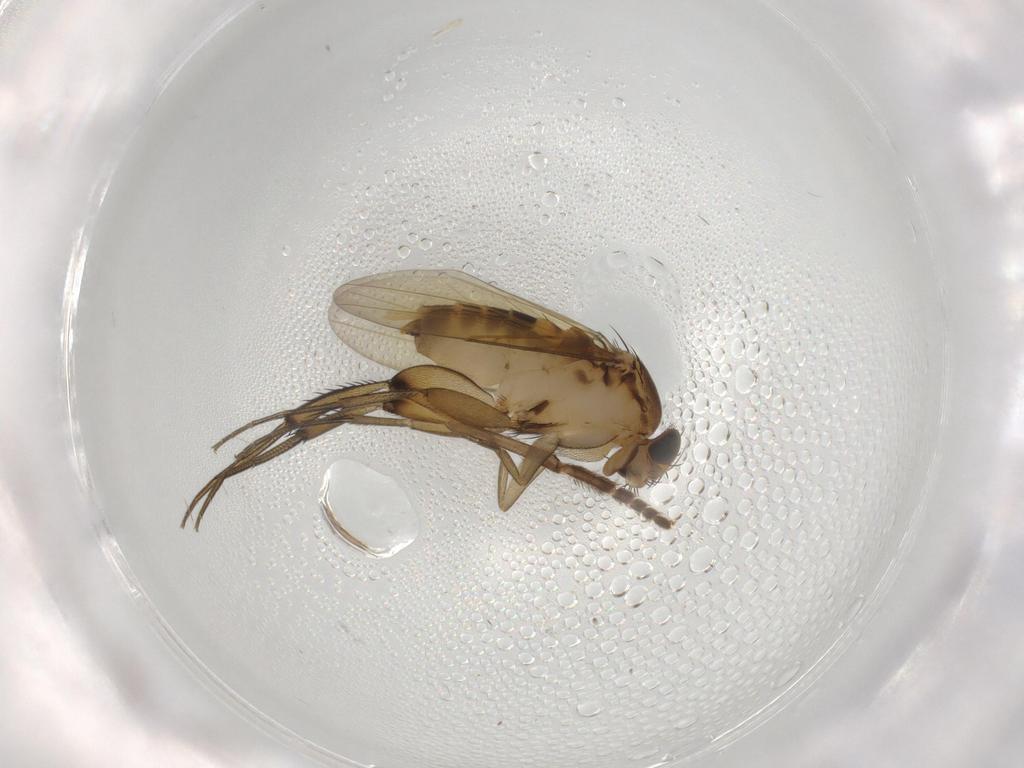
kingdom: Animalia
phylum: Arthropoda
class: Insecta
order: Diptera
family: Phoridae
